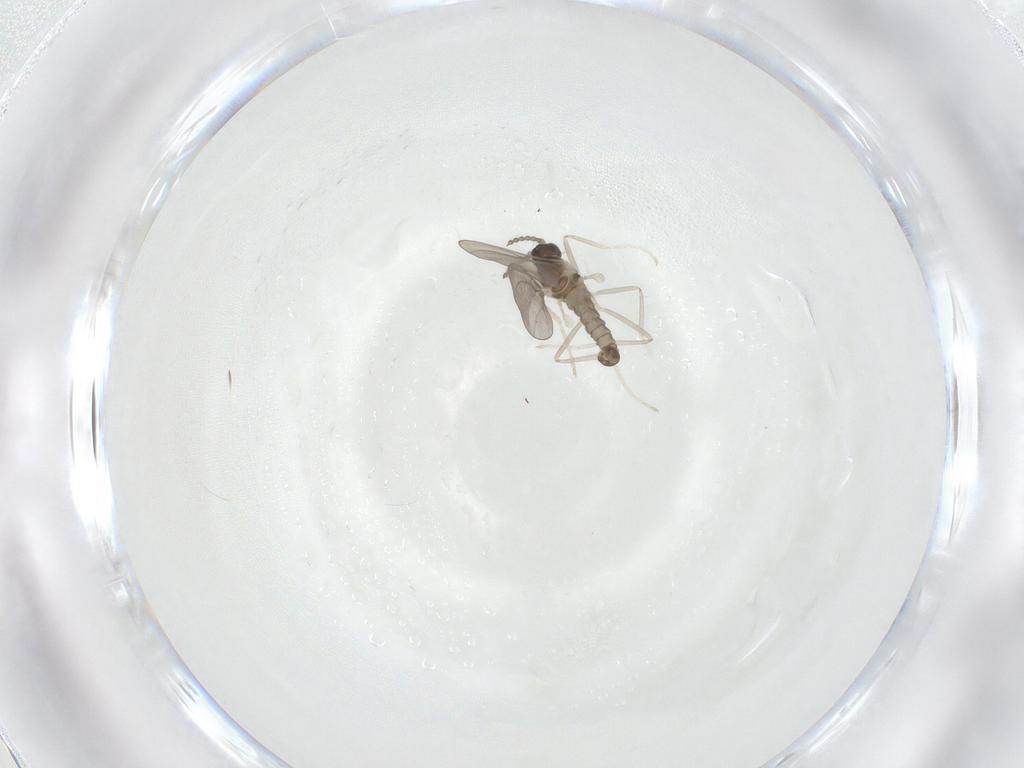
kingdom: Animalia
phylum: Arthropoda
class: Insecta
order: Diptera
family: Cecidomyiidae
